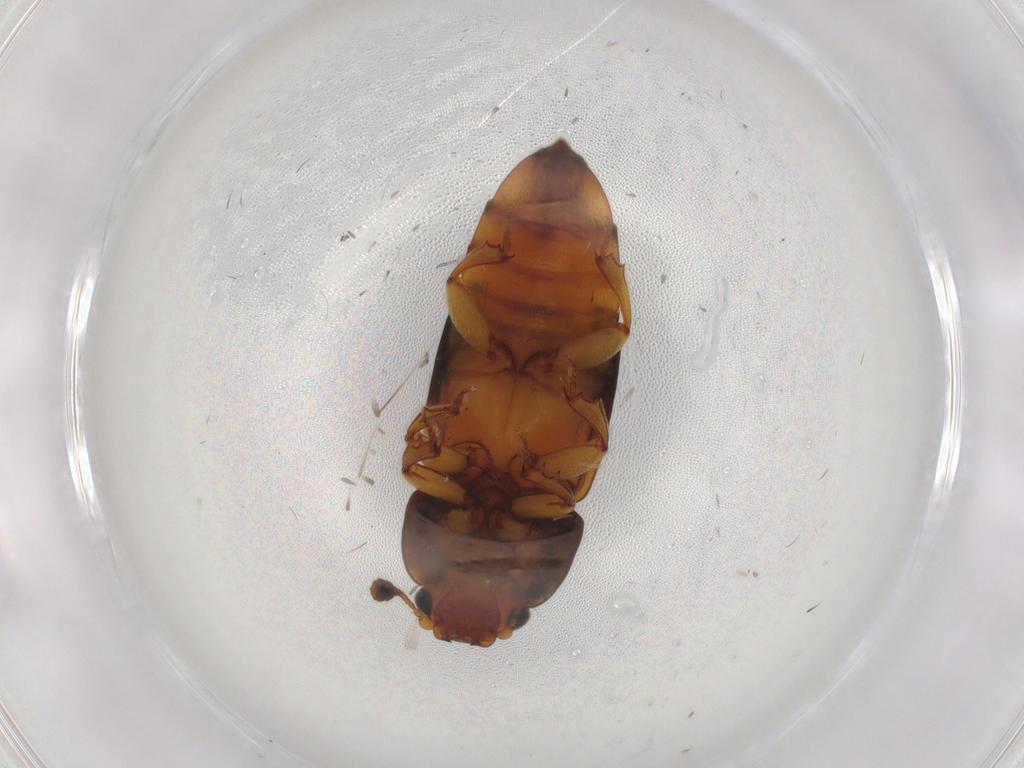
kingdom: Animalia
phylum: Arthropoda
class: Insecta
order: Coleoptera
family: Nitidulidae
